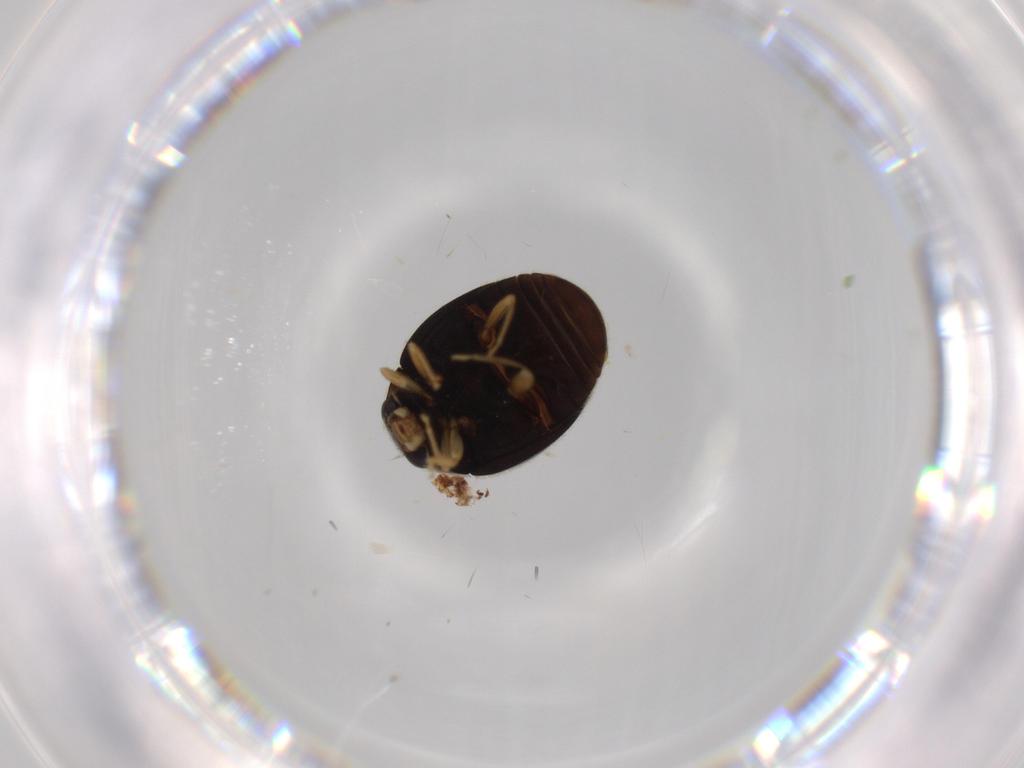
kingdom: Animalia
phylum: Arthropoda
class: Insecta
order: Coleoptera
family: Coccinellidae
